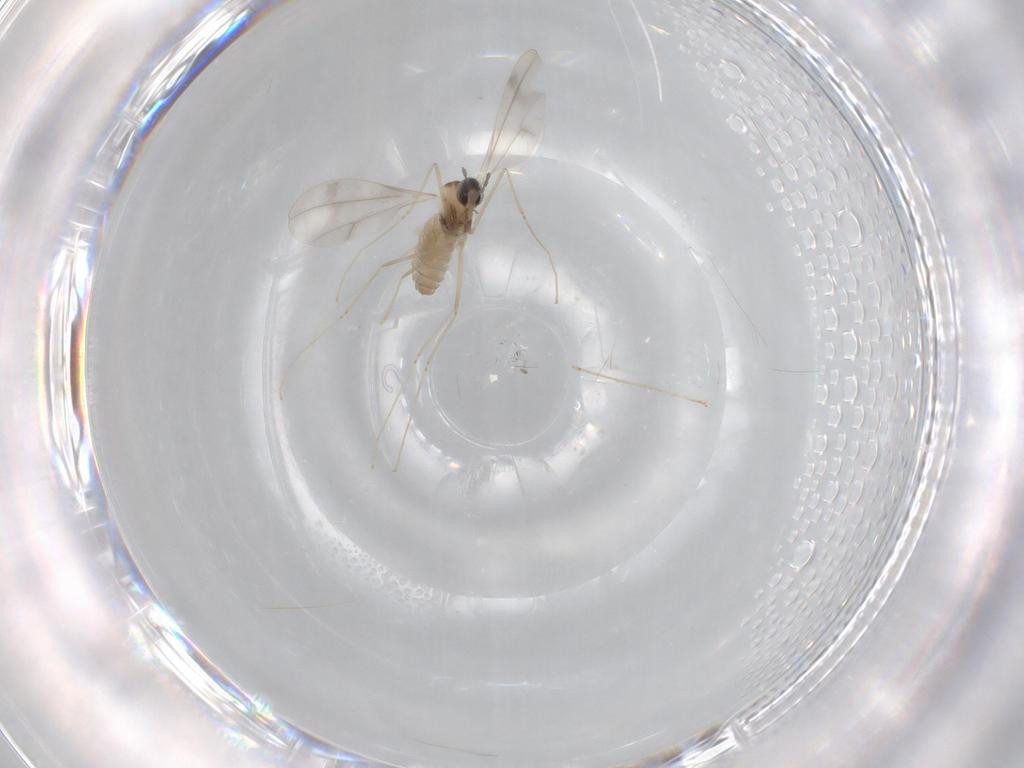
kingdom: Animalia
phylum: Arthropoda
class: Insecta
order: Diptera
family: Cecidomyiidae
